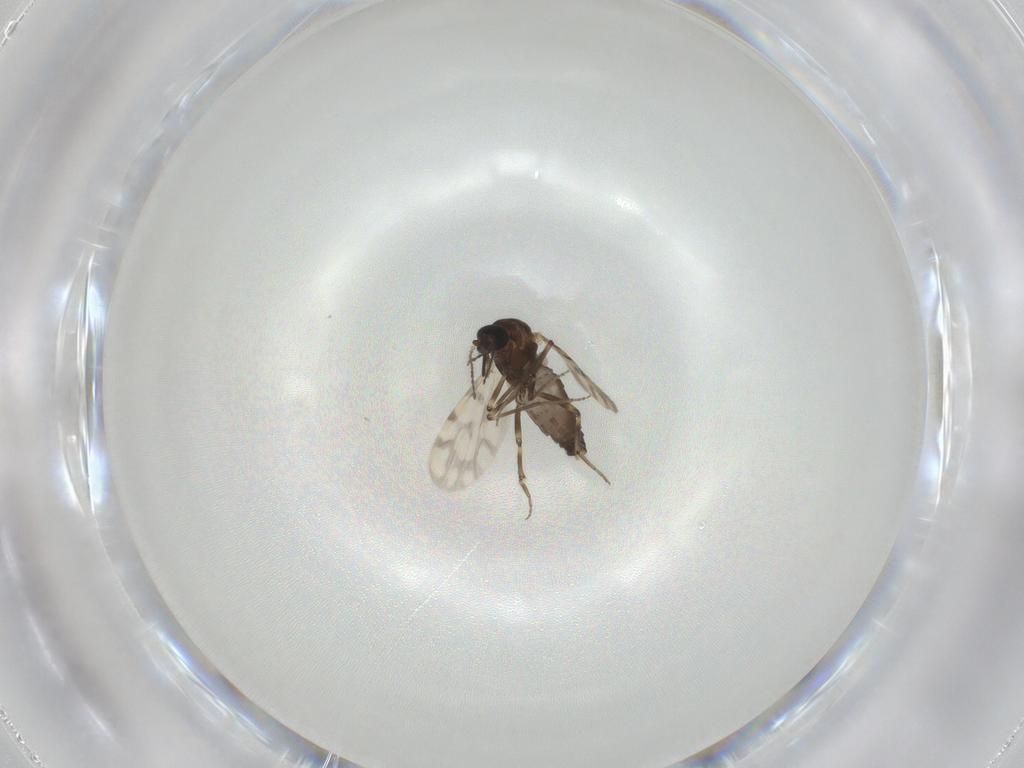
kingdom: Animalia
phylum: Arthropoda
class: Insecta
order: Diptera
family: Ceratopogonidae
